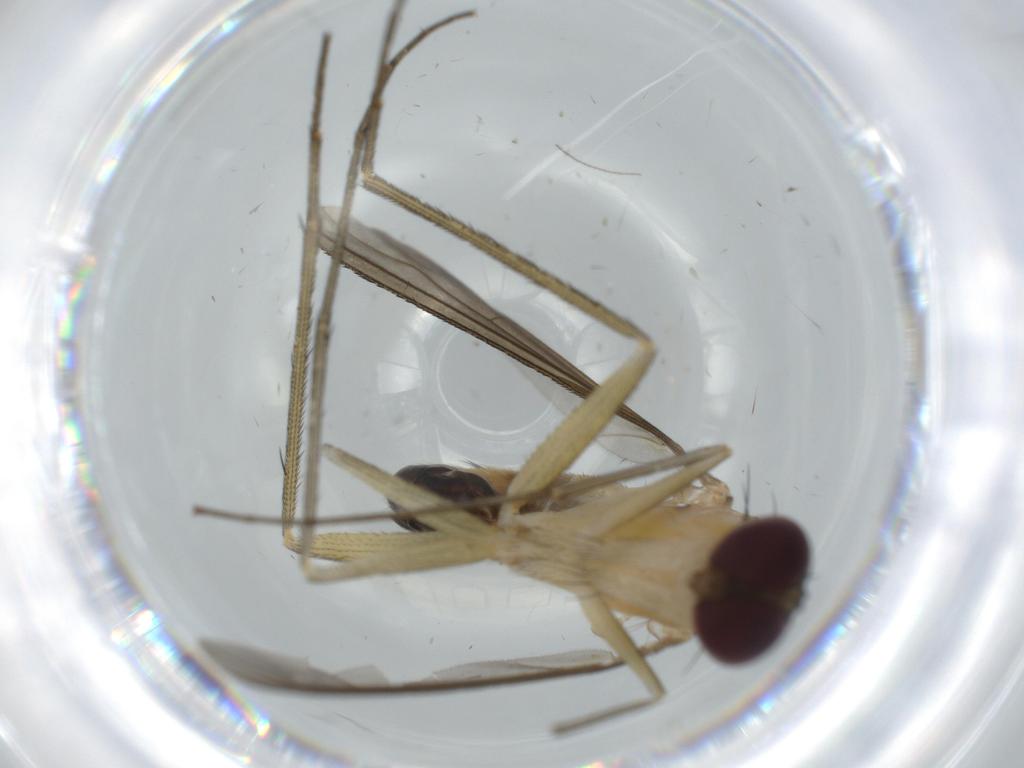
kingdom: Animalia
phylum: Arthropoda
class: Insecta
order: Diptera
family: Dolichopodidae
